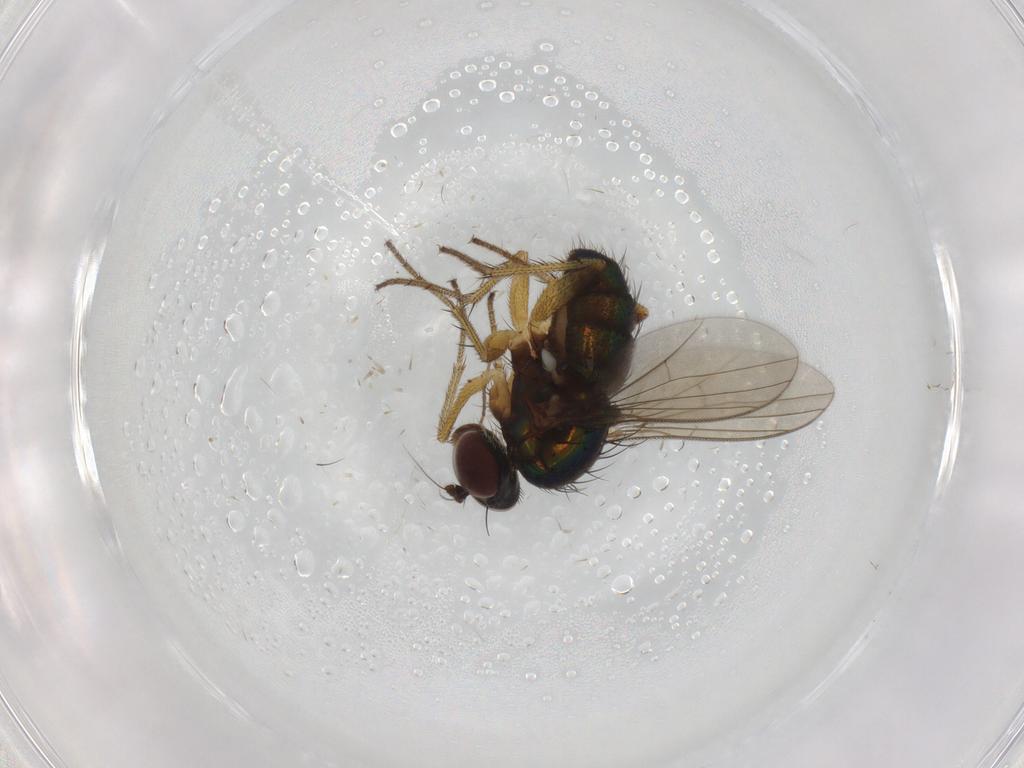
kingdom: Animalia
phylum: Arthropoda
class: Insecta
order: Diptera
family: Dolichopodidae
